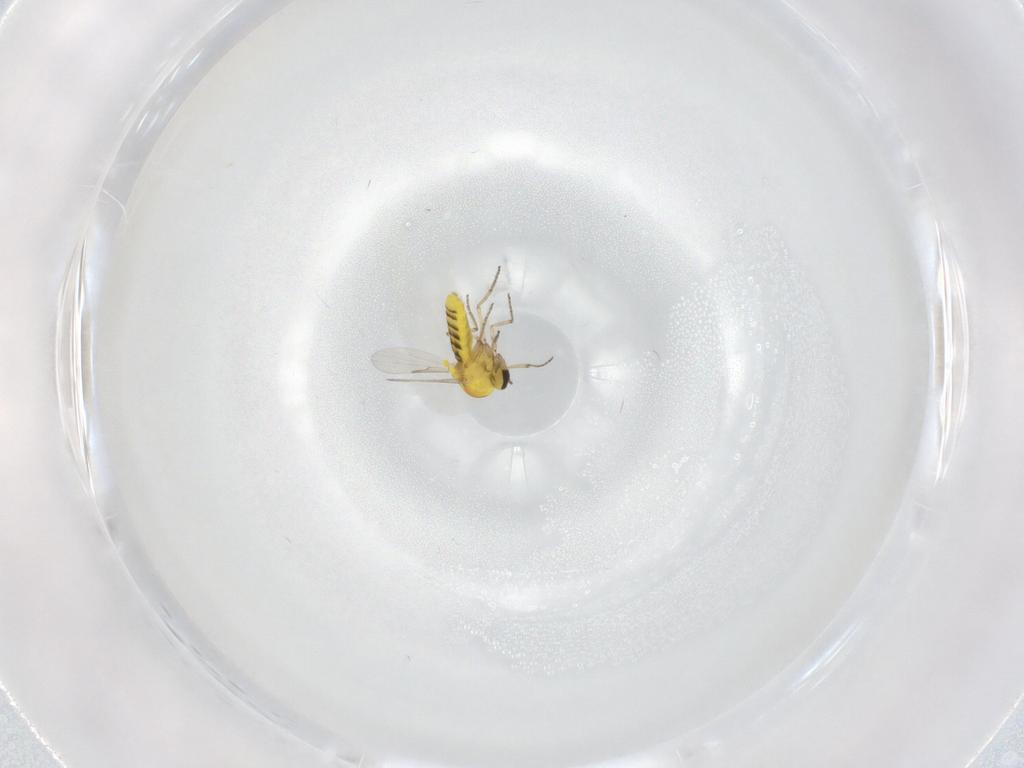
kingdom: Animalia
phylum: Arthropoda
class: Insecta
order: Diptera
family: Ceratopogonidae
